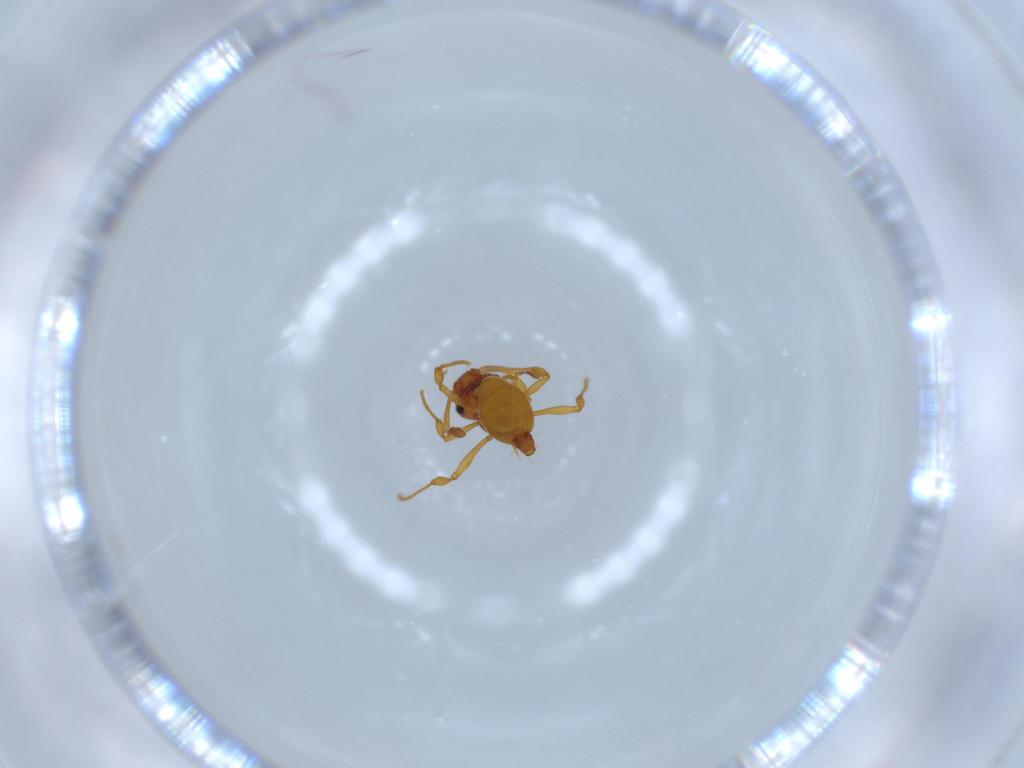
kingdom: Animalia
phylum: Arthropoda
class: Insecta
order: Hymenoptera
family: Formicidae
